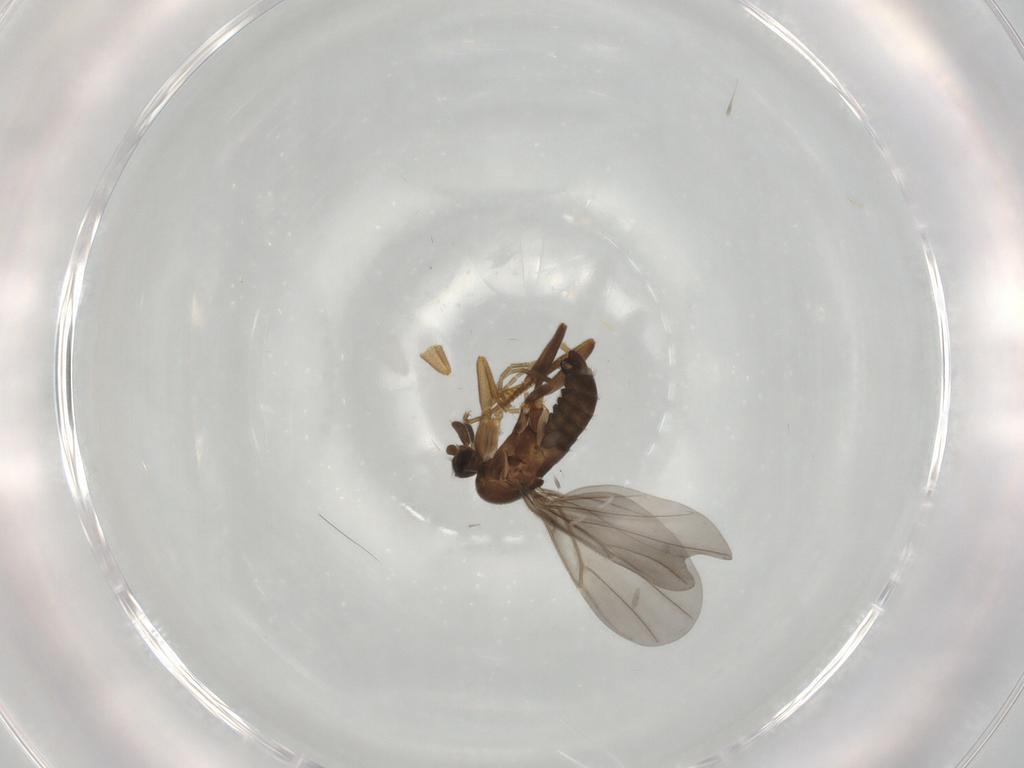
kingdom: Animalia
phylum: Arthropoda
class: Insecta
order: Diptera
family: Phoridae
